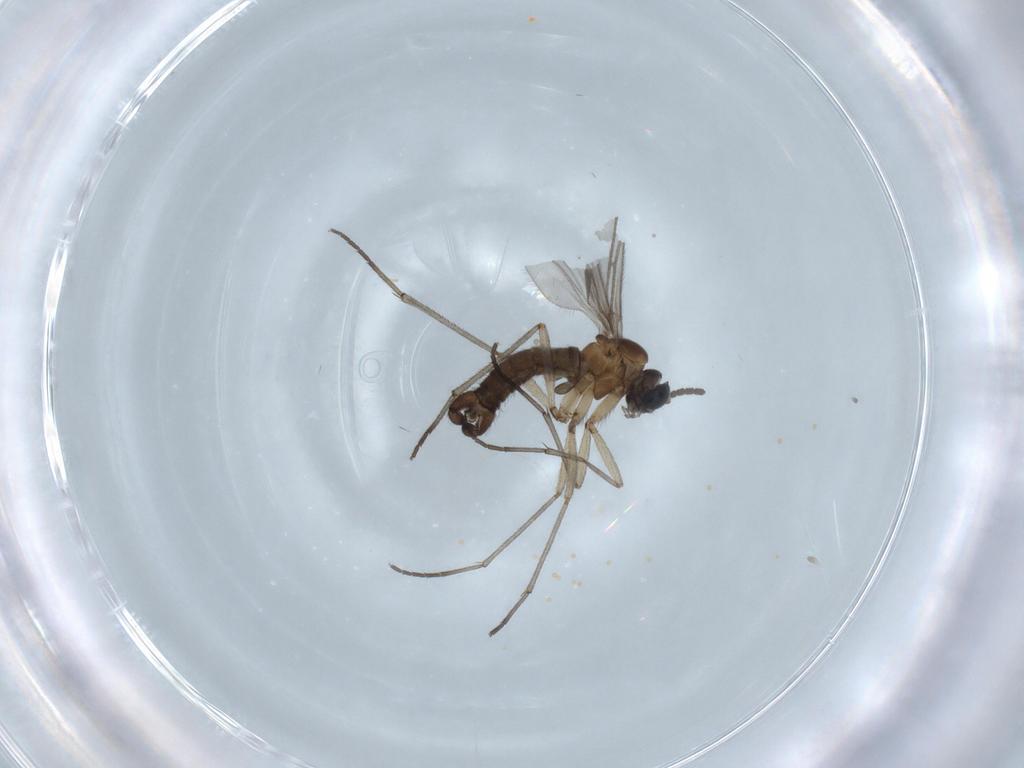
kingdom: Animalia
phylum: Arthropoda
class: Insecta
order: Diptera
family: Sciaridae
